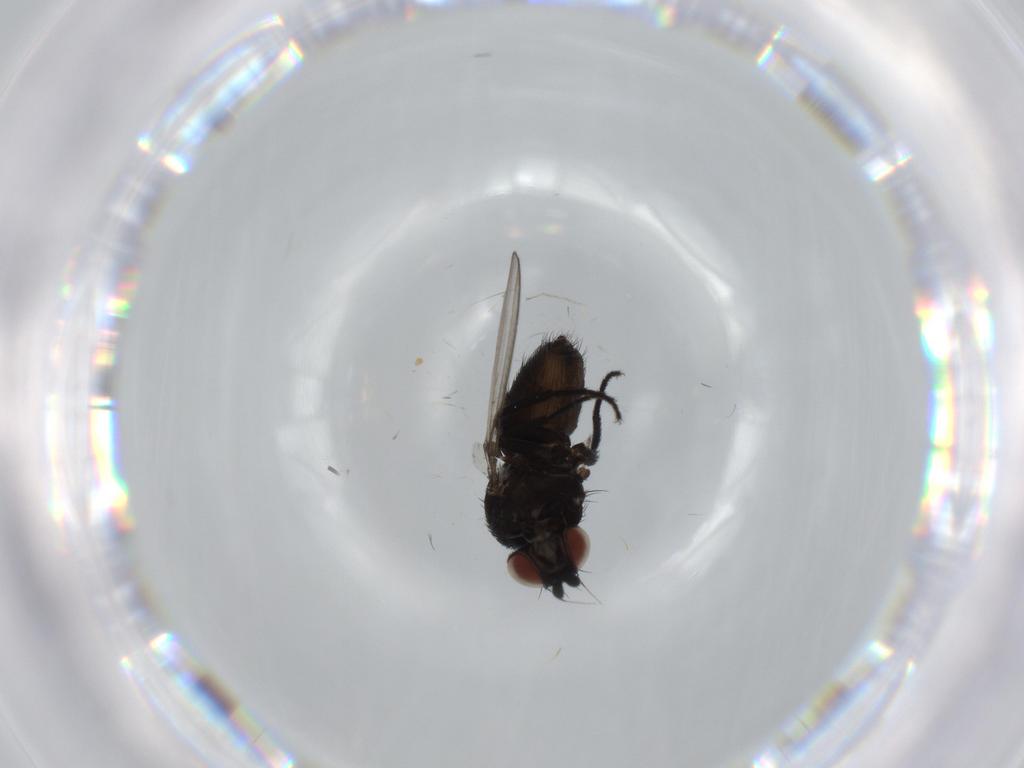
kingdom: Animalia
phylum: Arthropoda
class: Insecta
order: Diptera
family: Milichiidae
